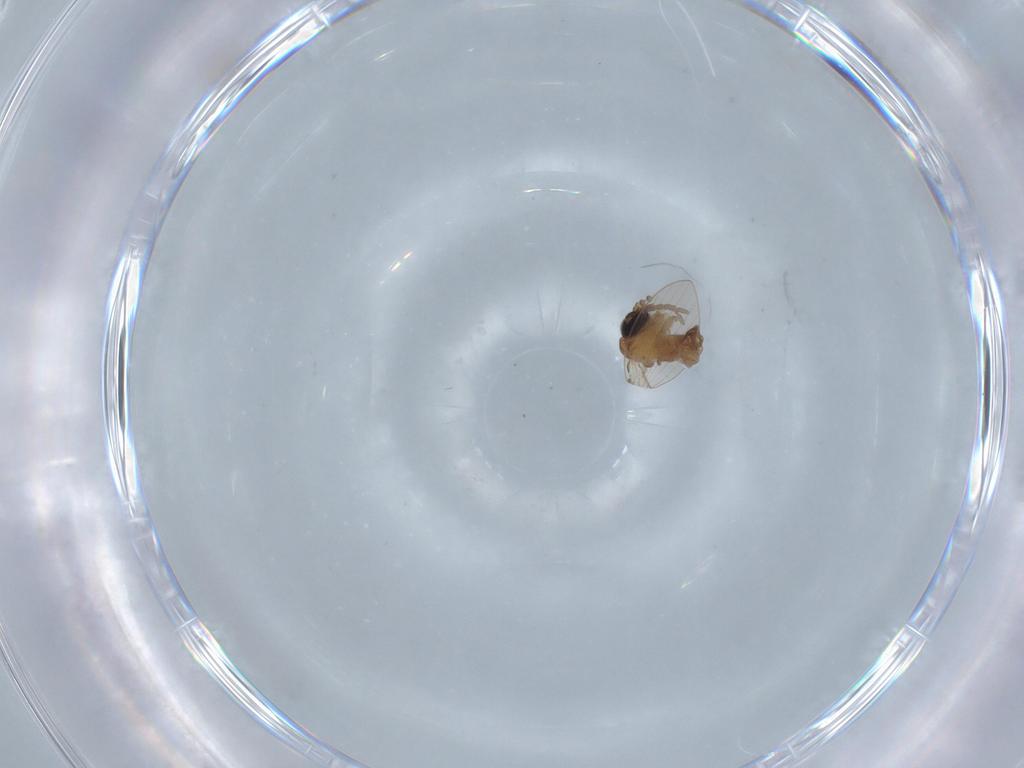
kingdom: Animalia
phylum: Arthropoda
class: Insecta
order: Diptera
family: Psychodidae
